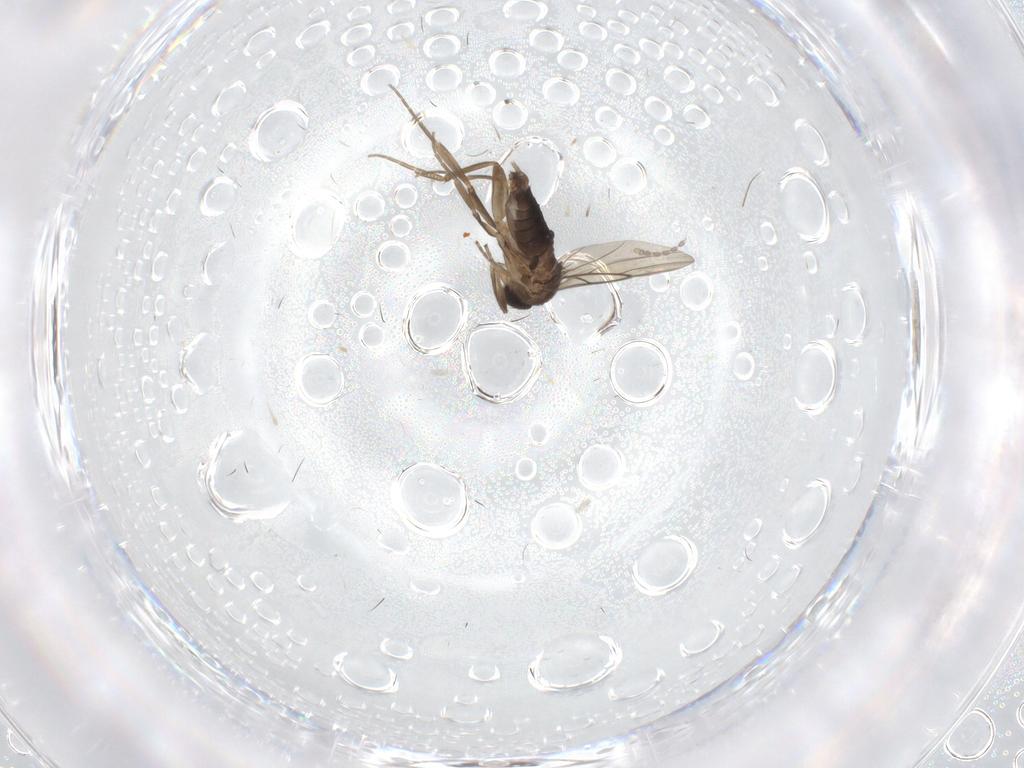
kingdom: Animalia
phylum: Arthropoda
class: Insecta
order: Diptera
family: Phoridae
